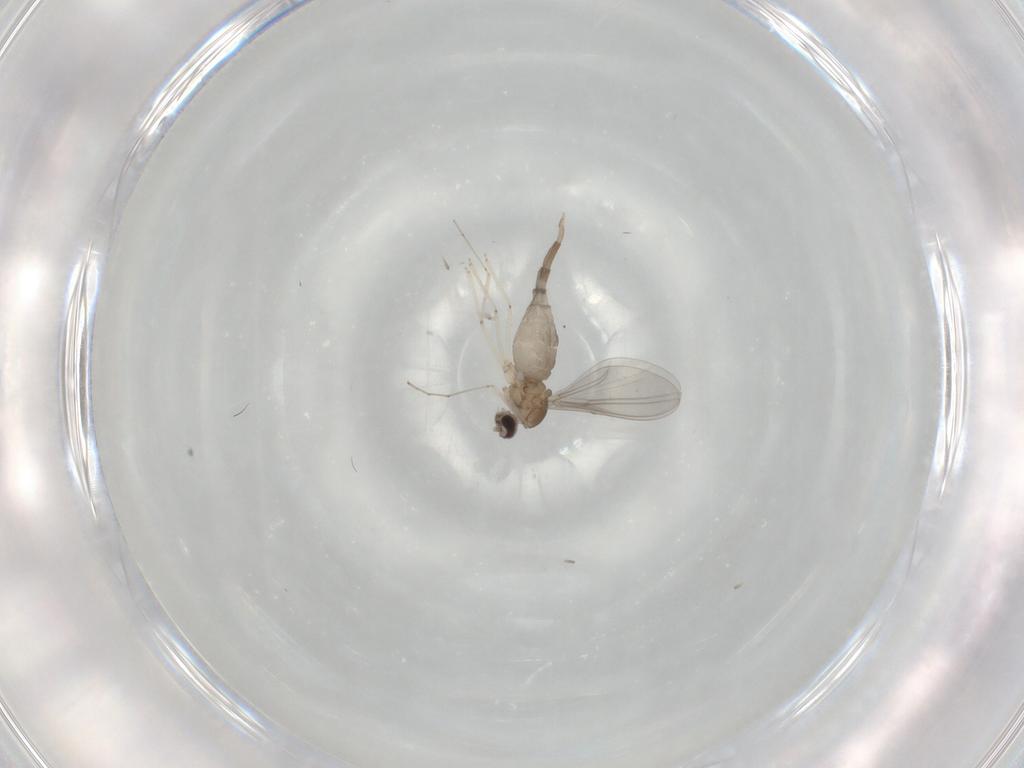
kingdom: Animalia
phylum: Arthropoda
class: Insecta
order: Diptera
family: Cecidomyiidae
